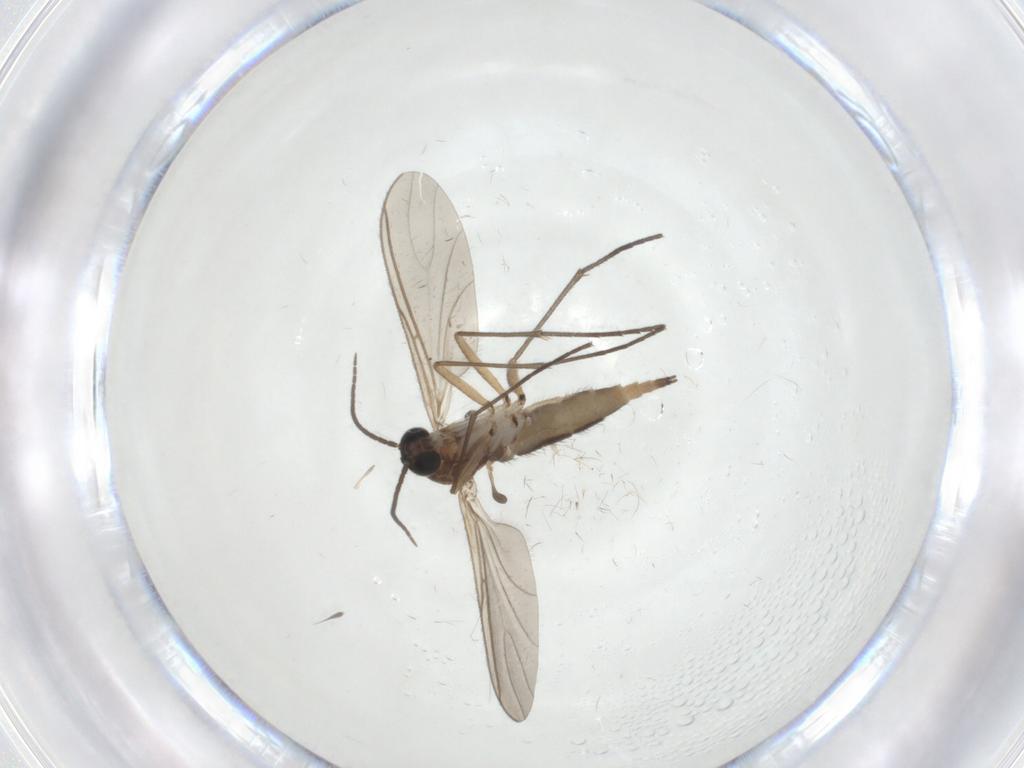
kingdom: Animalia
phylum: Arthropoda
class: Insecta
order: Diptera
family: Sciaridae
